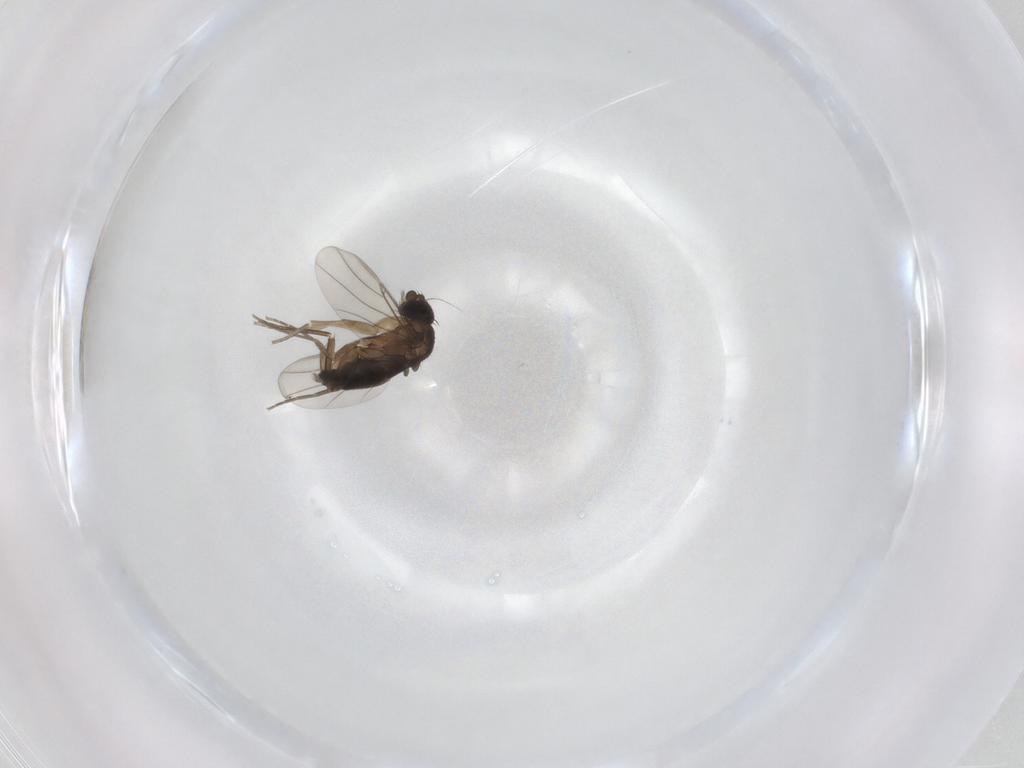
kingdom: Animalia
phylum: Arthropoda
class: Insecta
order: Diptera
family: Phoridae
